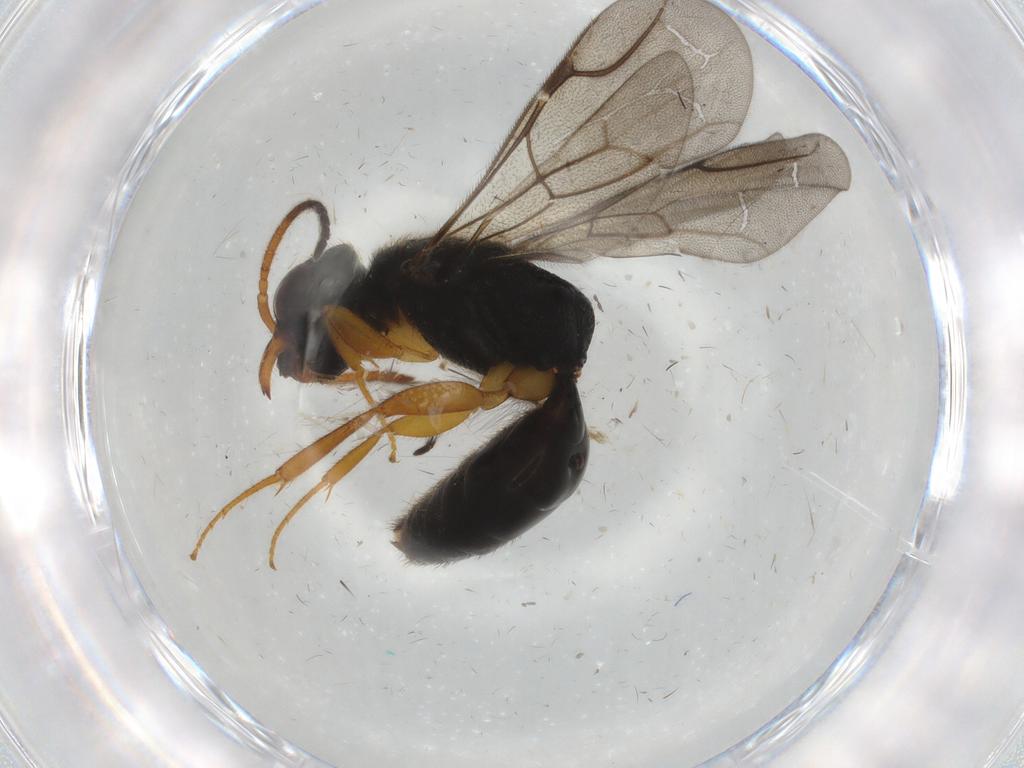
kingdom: Animalia
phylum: Arthropoda
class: Insecta
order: Hymenoptera
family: Bethylidae
